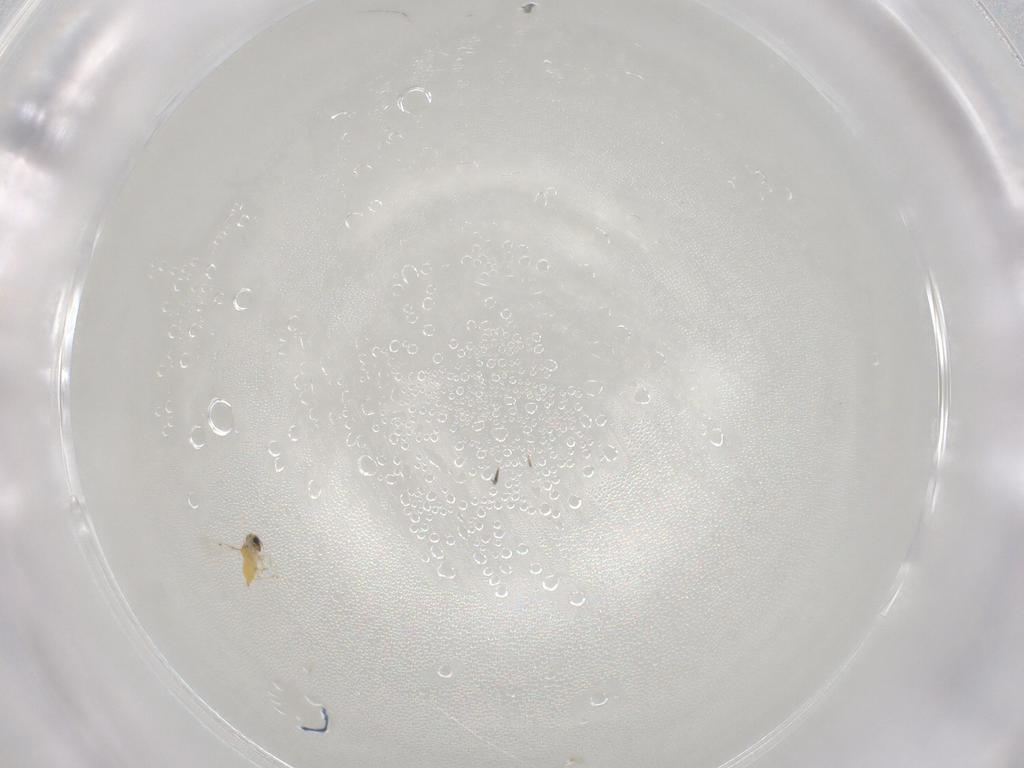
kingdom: Animalia
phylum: Arthropoda
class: Insecta
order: Hymenoptera
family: Trichogrammatidae
